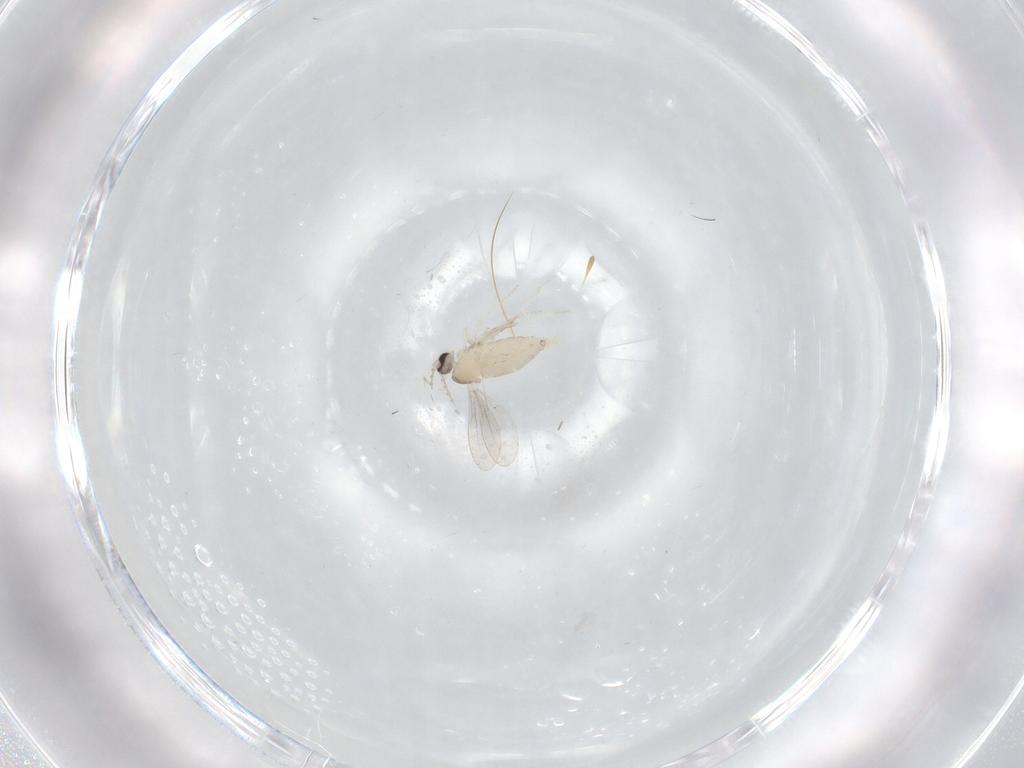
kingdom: Animalia
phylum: Arthropoda
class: Insecta
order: Diptera
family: Cecidomyiidae
